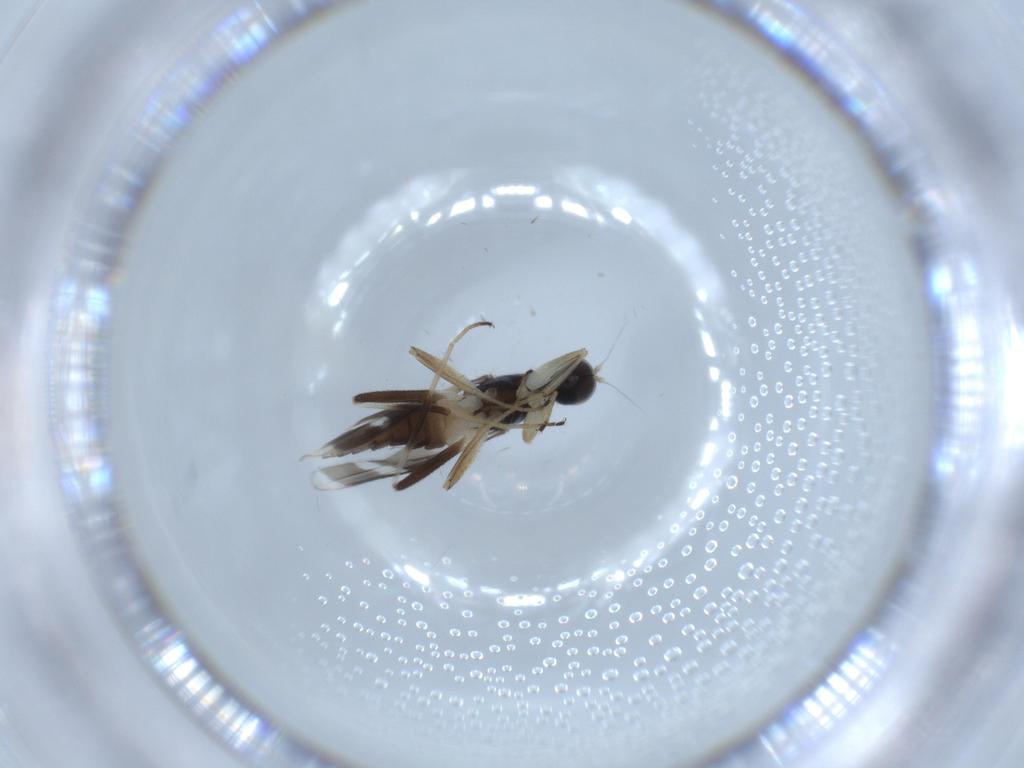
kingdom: Animalia
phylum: Arthropoda
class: Insecta
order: Diptera
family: Hybotidae
